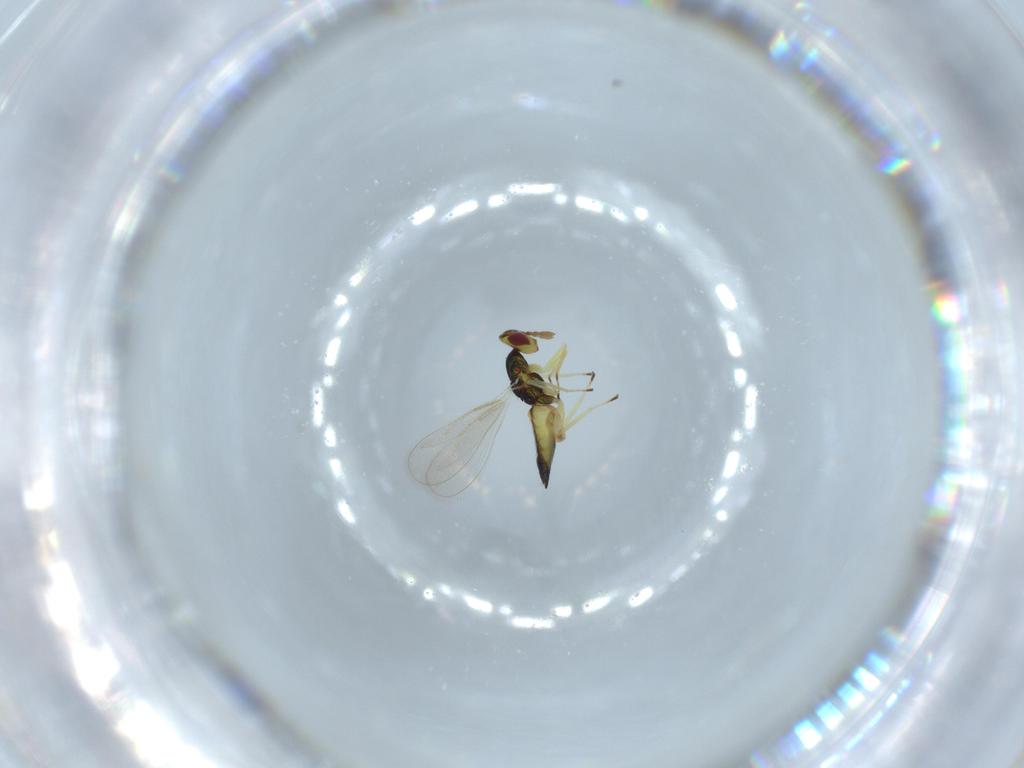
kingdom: Animalia
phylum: Arthropoda
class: Insecta
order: Hymenoptera
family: Eulophidae
